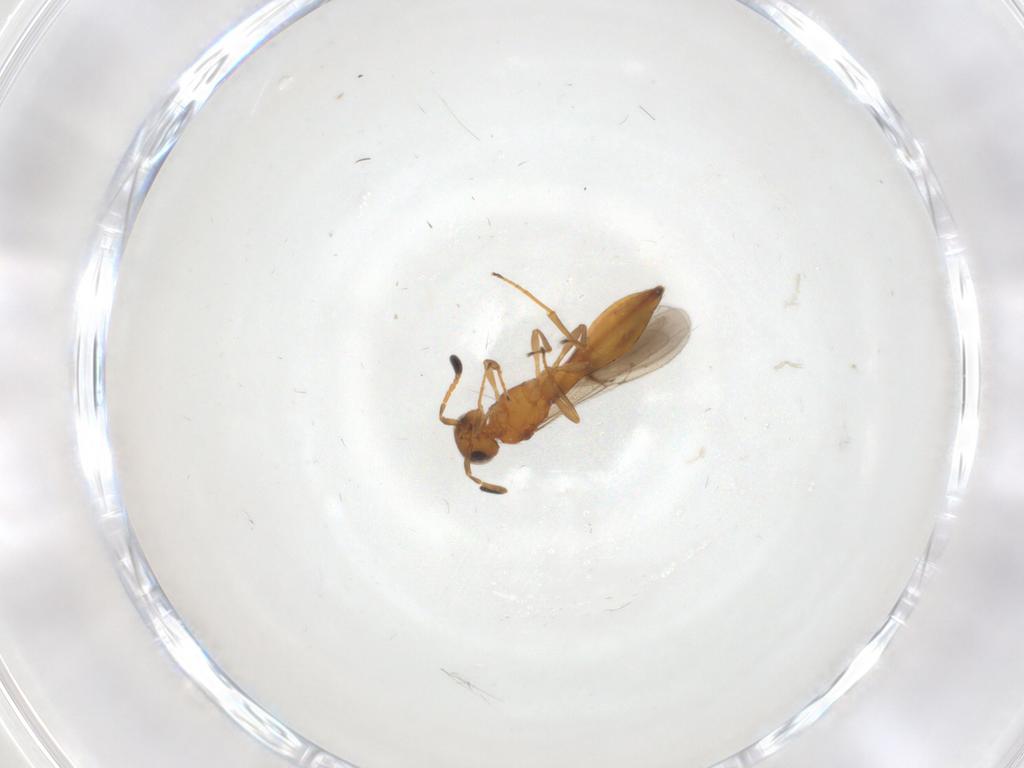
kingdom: Animalia
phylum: Arthropoda
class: Insecta
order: Hymenoptera
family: Scelionidae
